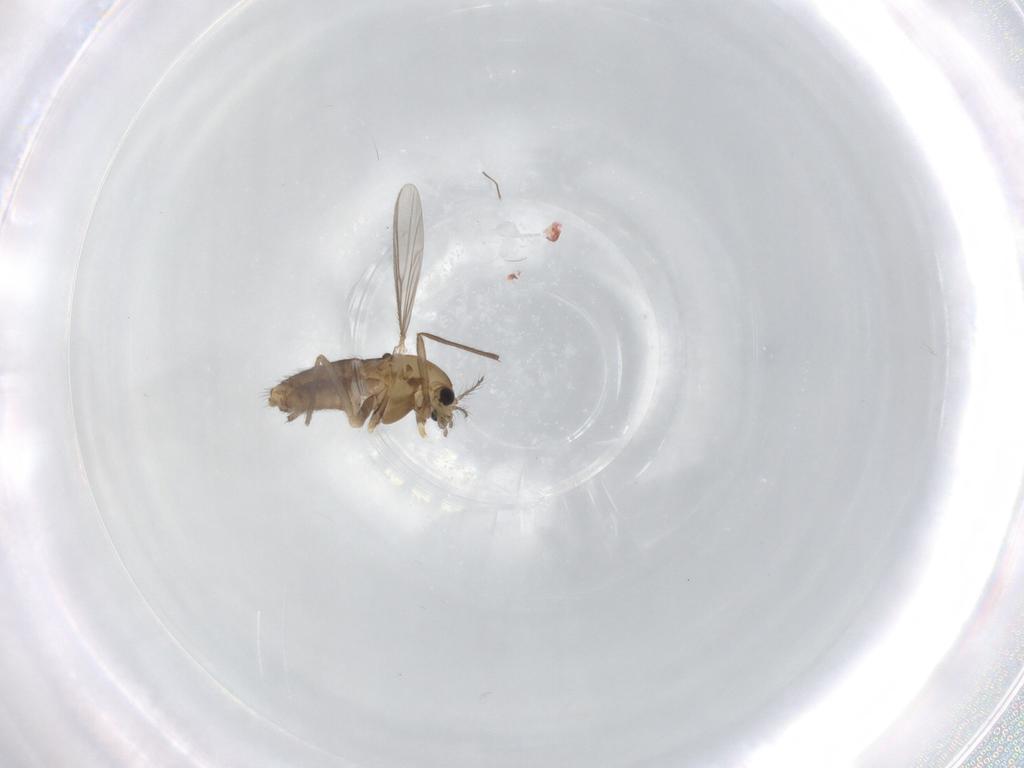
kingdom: Animalia
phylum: Arthropoda
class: Insecta
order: Diptera
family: Chironomidae
